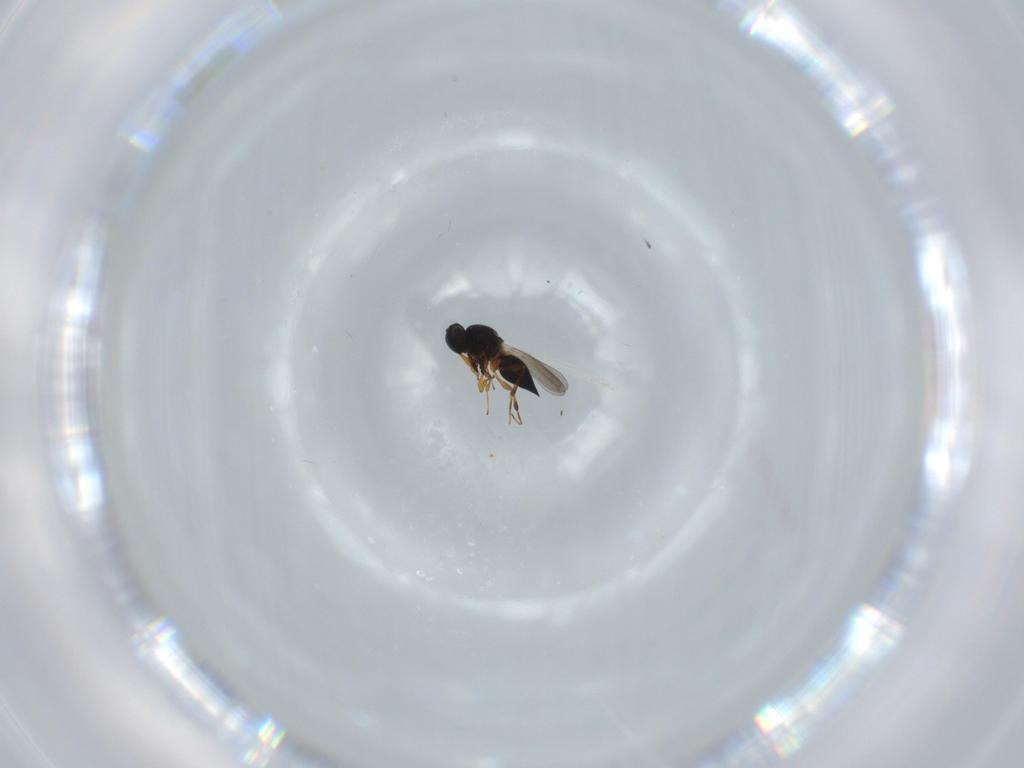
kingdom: Animalia
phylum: Arthropoda
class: Insecta
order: Hymenoptera
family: Platygastridae
